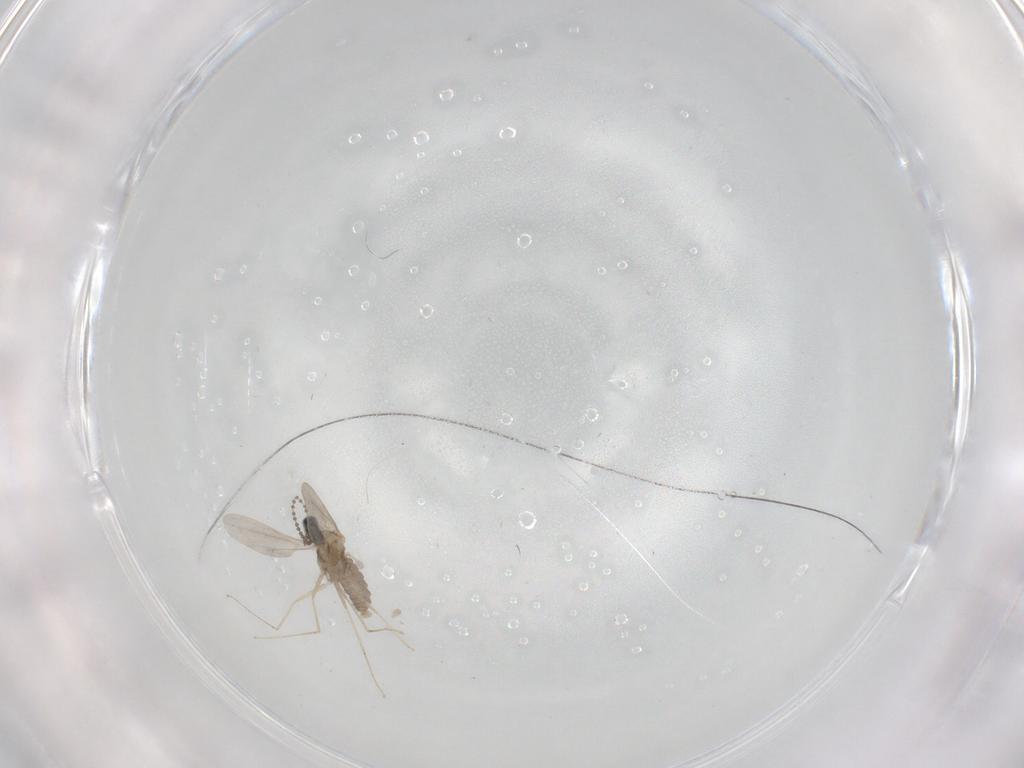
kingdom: Animalia
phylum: Arthropoda
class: Insecta
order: Diptera
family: Cecidomyiidae
